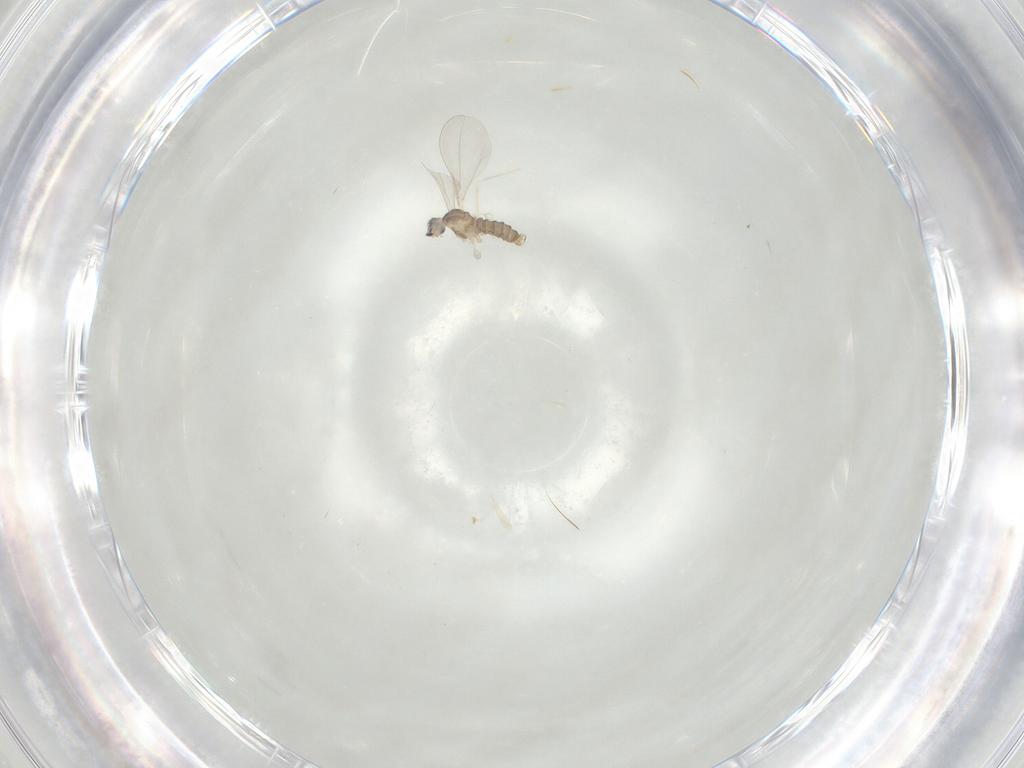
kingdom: Animalia
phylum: Arthropoda
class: Insecta
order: Diptera
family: Cecidomyiidae
